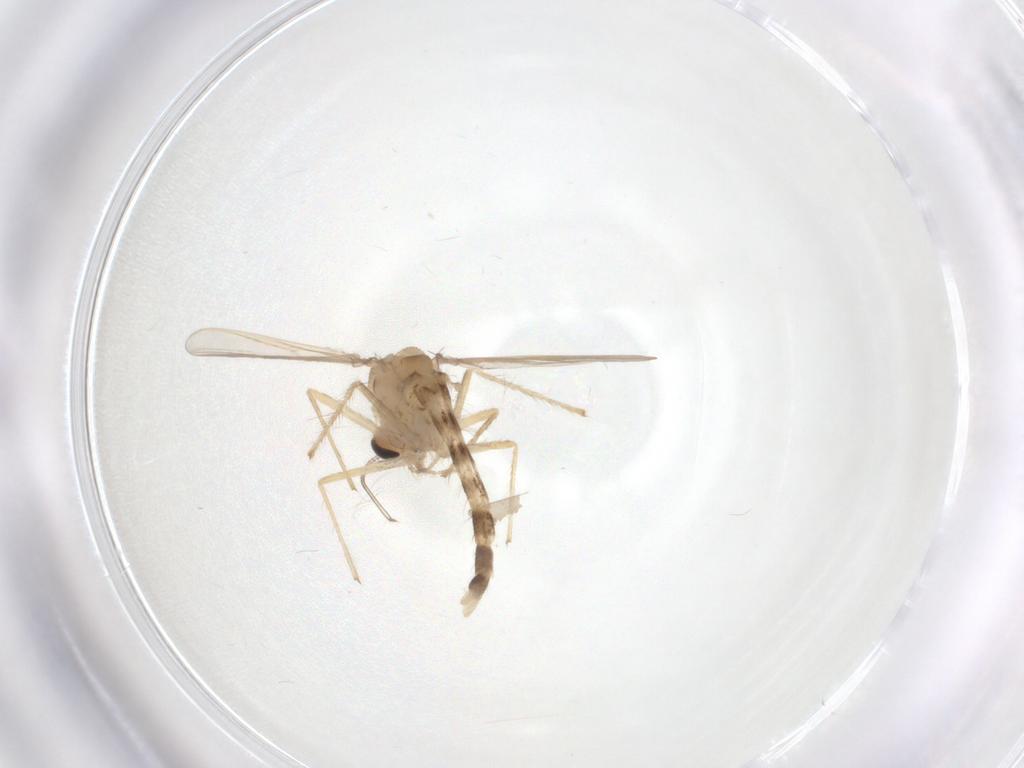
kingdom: Animalia
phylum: Arthropoda
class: Insecta
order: Diptera
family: Chironomidae
